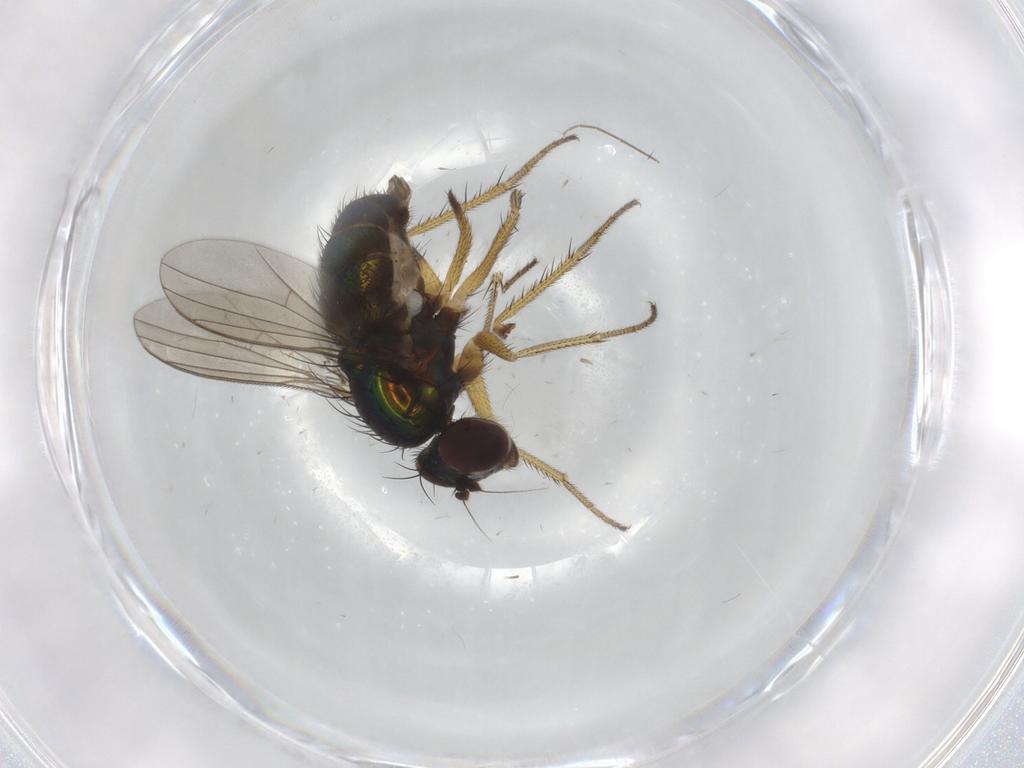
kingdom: Animalia
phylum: Arthropoda
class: Insecta
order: Diptera
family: Dolichopodidae
